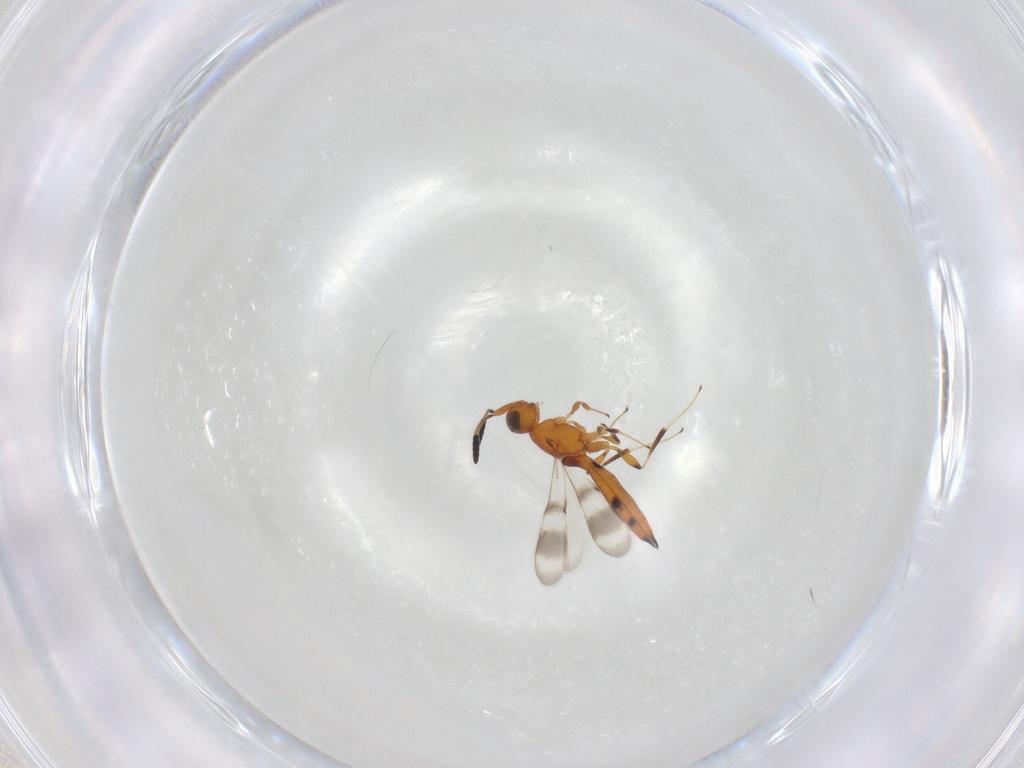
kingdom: Animalia
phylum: Arthropoda
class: Insecta
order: Hymenoptera
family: Scelionidae
